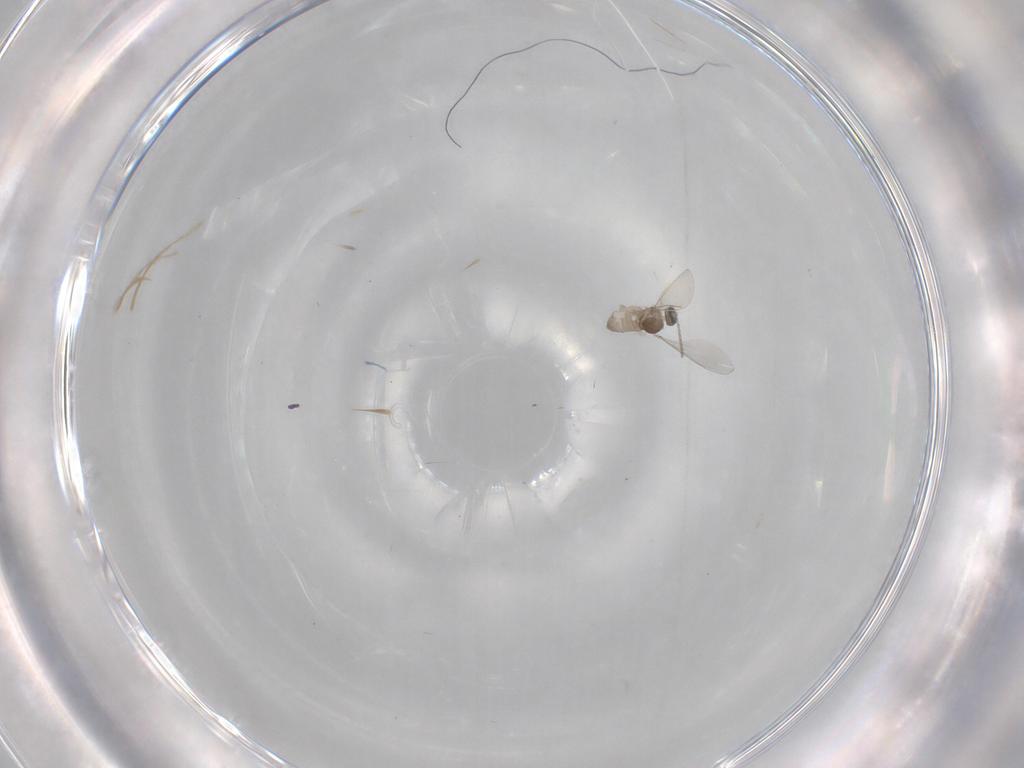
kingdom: Animalia
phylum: Arthropoda
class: Insecta
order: Diptera
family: Cecidomyiidae
